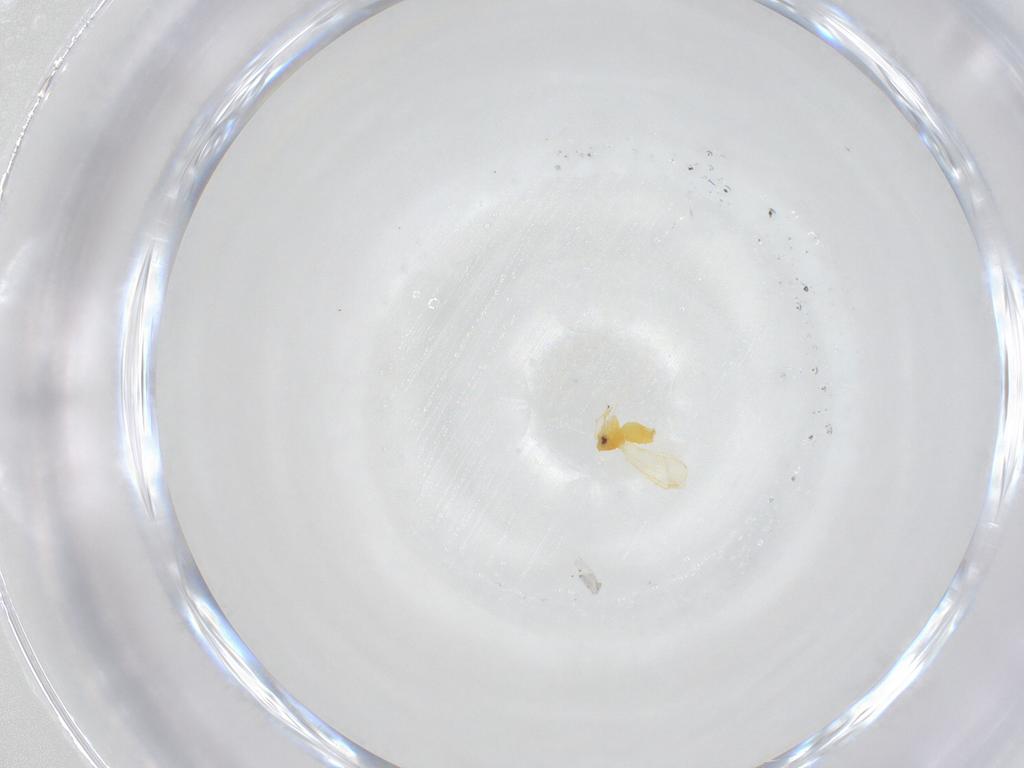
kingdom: Animalia
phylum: Arthropoda
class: Insecta
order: Hemiptera
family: Aleyrodidae
